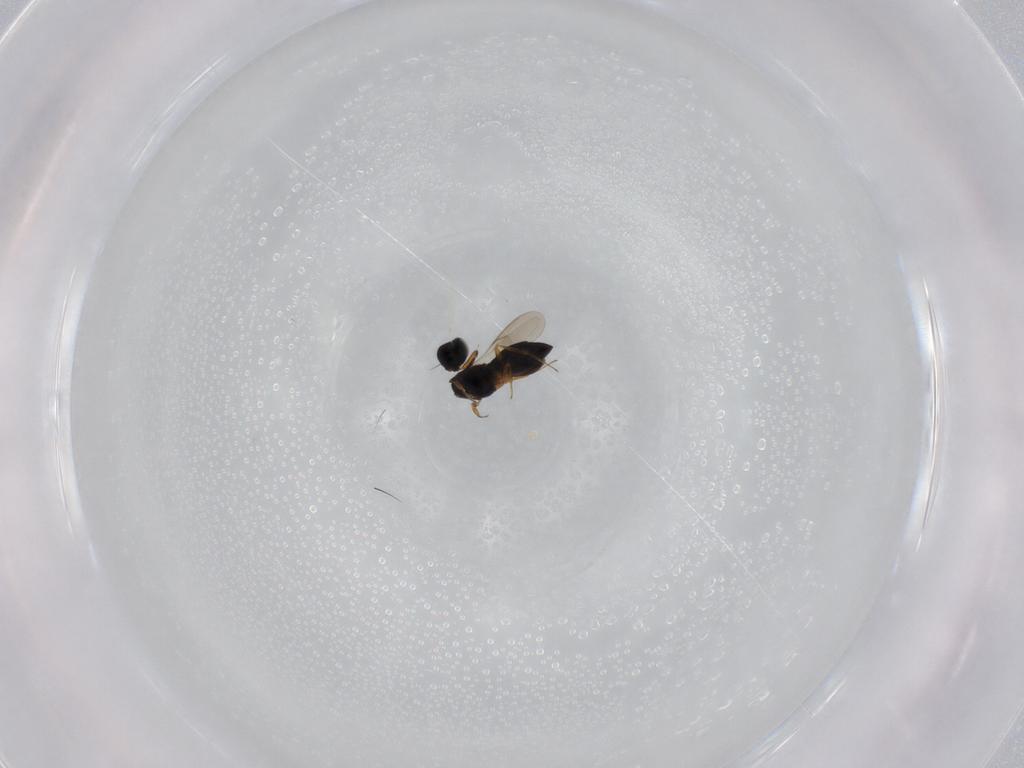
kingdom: Animalia
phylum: Arthropoda
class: Insecta
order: Hymenoptera
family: Scelionidae
